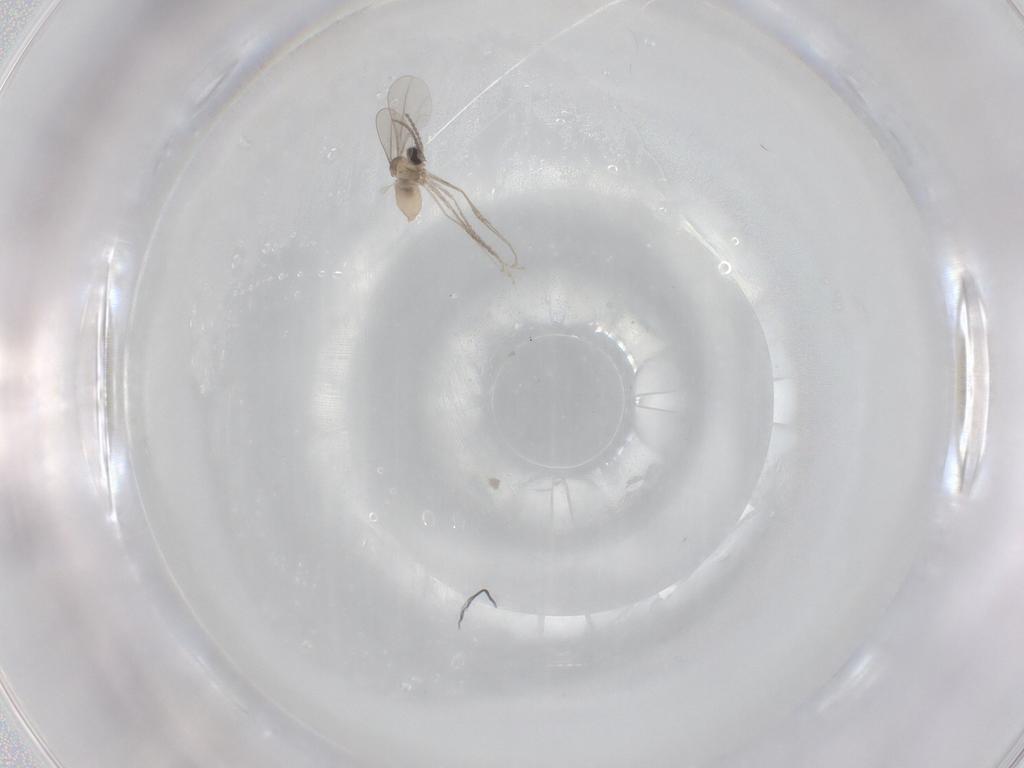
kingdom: Animalia
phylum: Arthropoda
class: Insecta
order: Diptera
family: Cecidomyiidae
